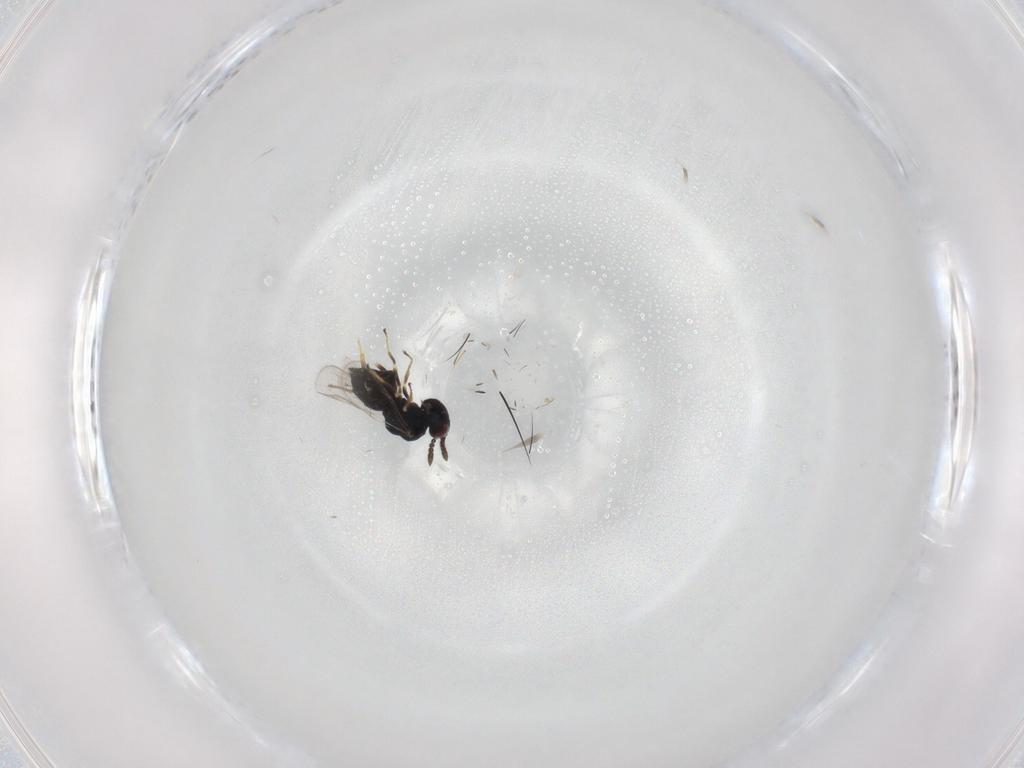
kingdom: Animalia
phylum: Arthropoda
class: Insecta
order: Hymenoptera
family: Pteromalidae
